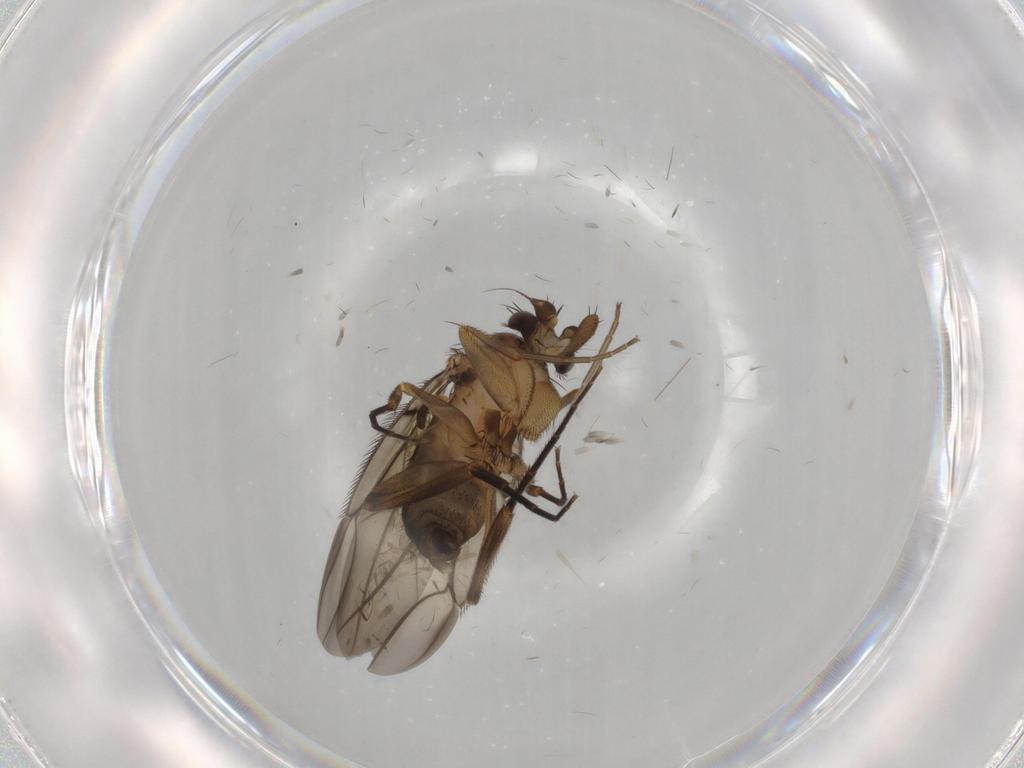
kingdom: Animalia
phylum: Arthropoda
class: Insecta
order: Diptera
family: Phoridae
